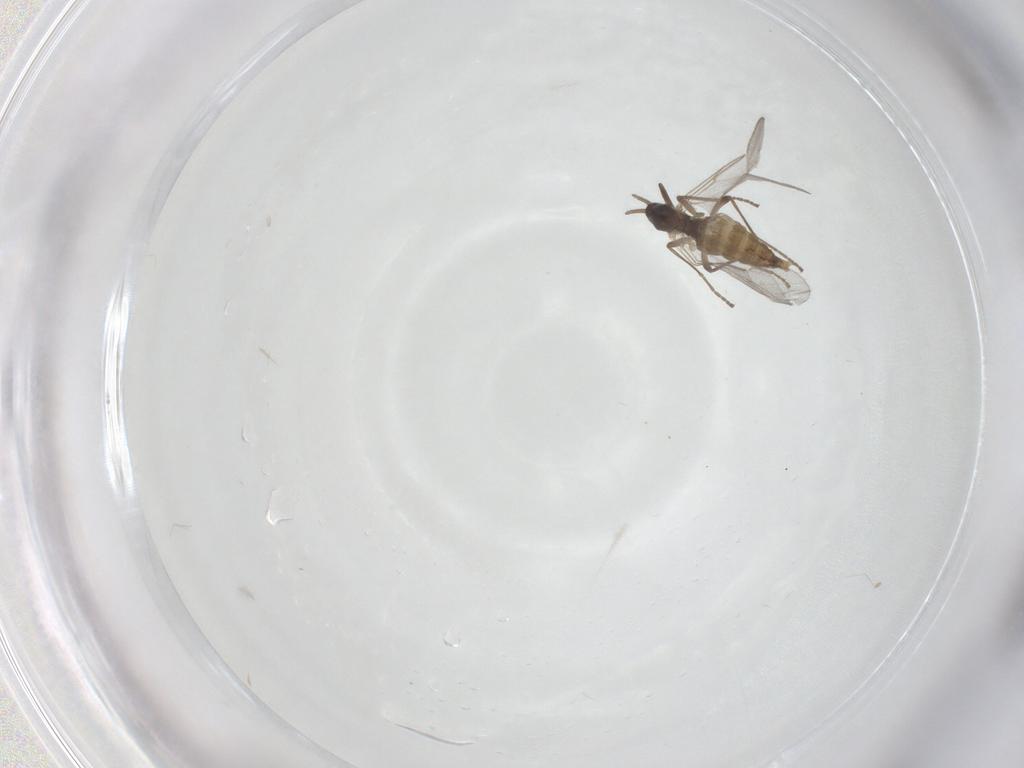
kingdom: Animalia
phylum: Arthropoda
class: Insecta
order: Diptera
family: Cecidomyiidae
